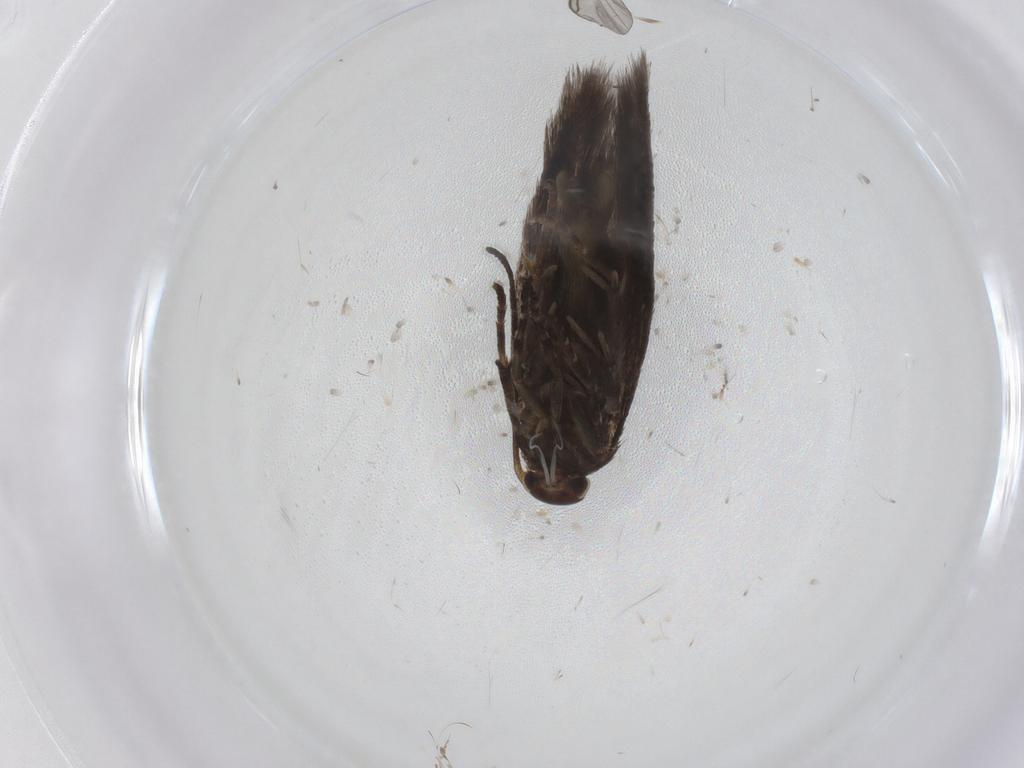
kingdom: Animalia
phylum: Arthropoda
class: Insecta
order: Lepidoptera
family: Elachistidae
